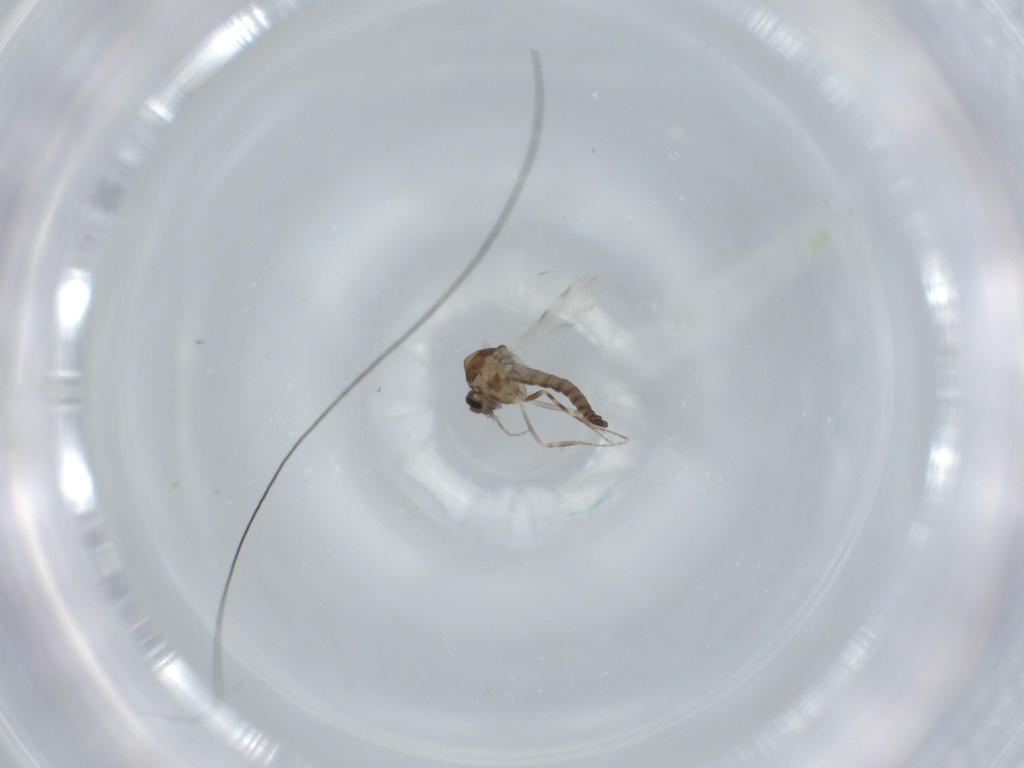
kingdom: Animalia
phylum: Arthropoda
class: Insecta
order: Diptera
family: Ceratopogonidae
